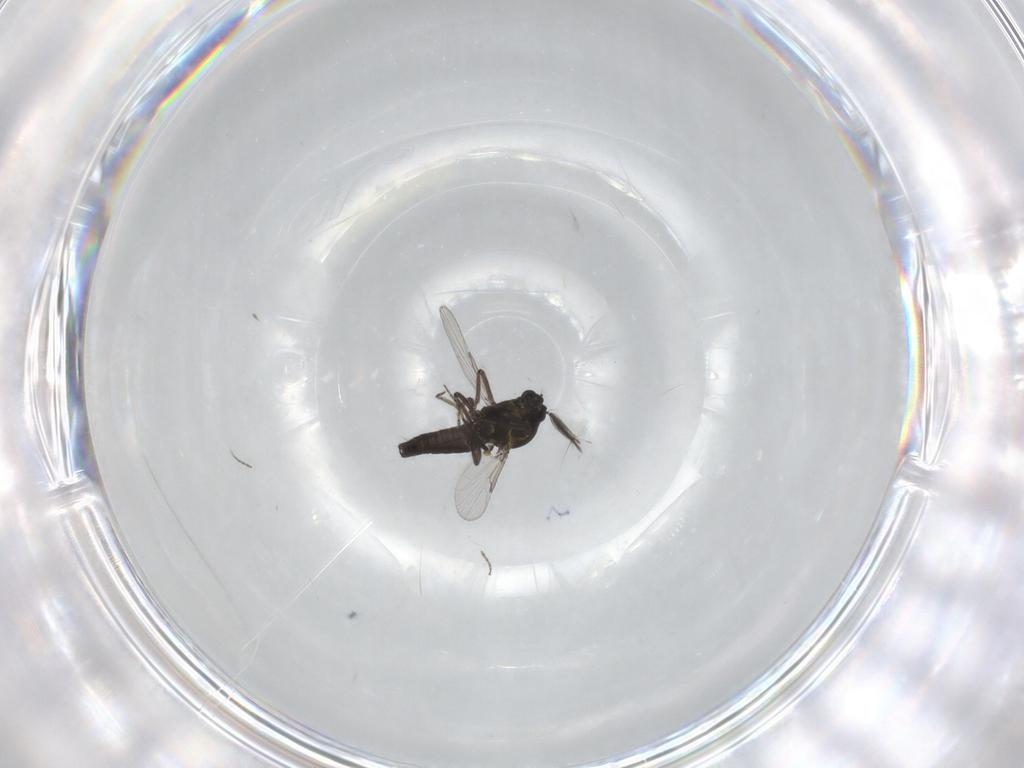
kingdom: Animalia
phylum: Arthropoda
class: Insecta
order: Diptera
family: Ceratopogonidae
